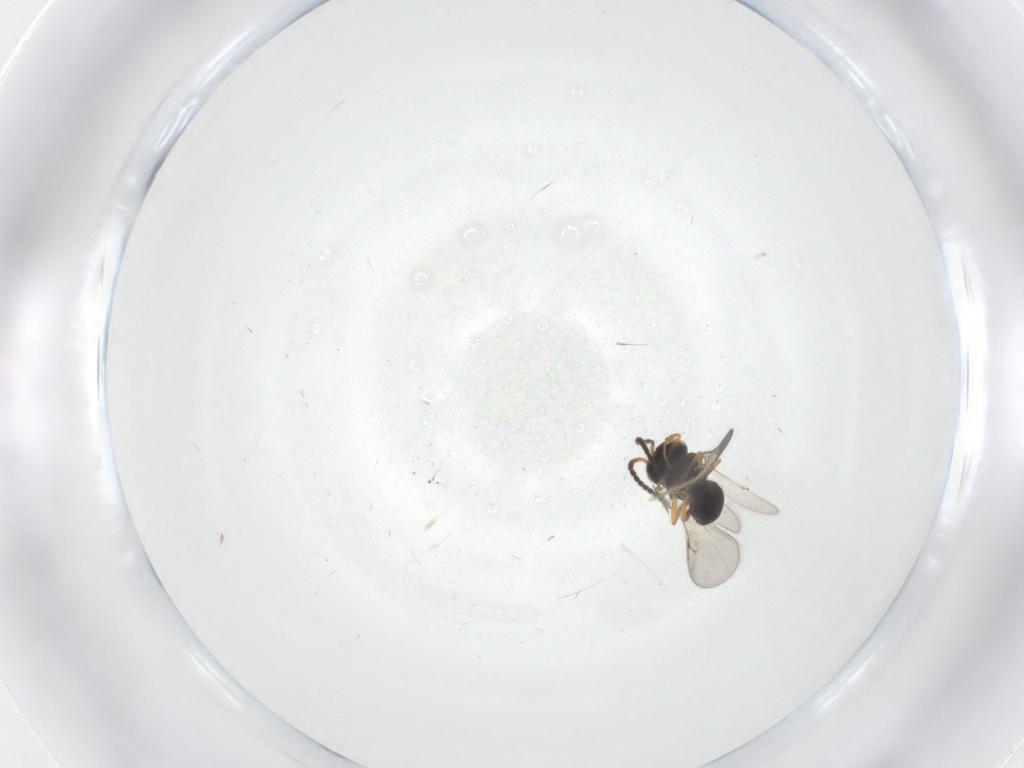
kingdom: Animalia
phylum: Arthropoda
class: Insecta
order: Hymenoptera
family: Scelionidae
